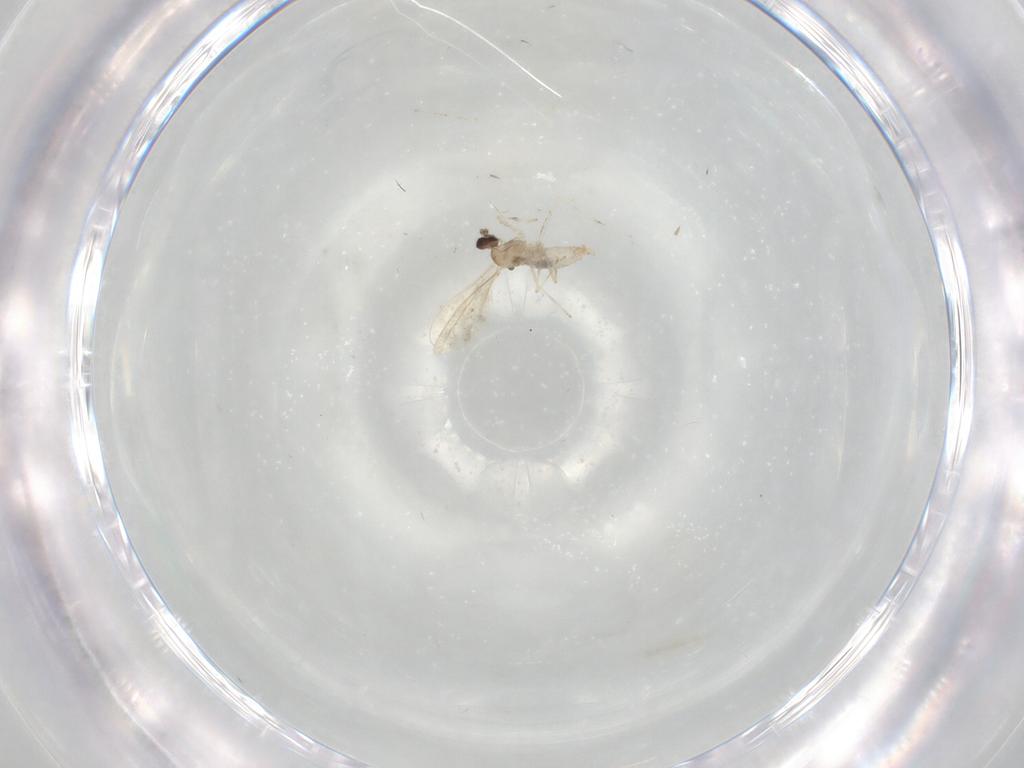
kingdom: Animalia
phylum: Arthropoda
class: Insecta
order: Diptera
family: Cecidomyiidae
